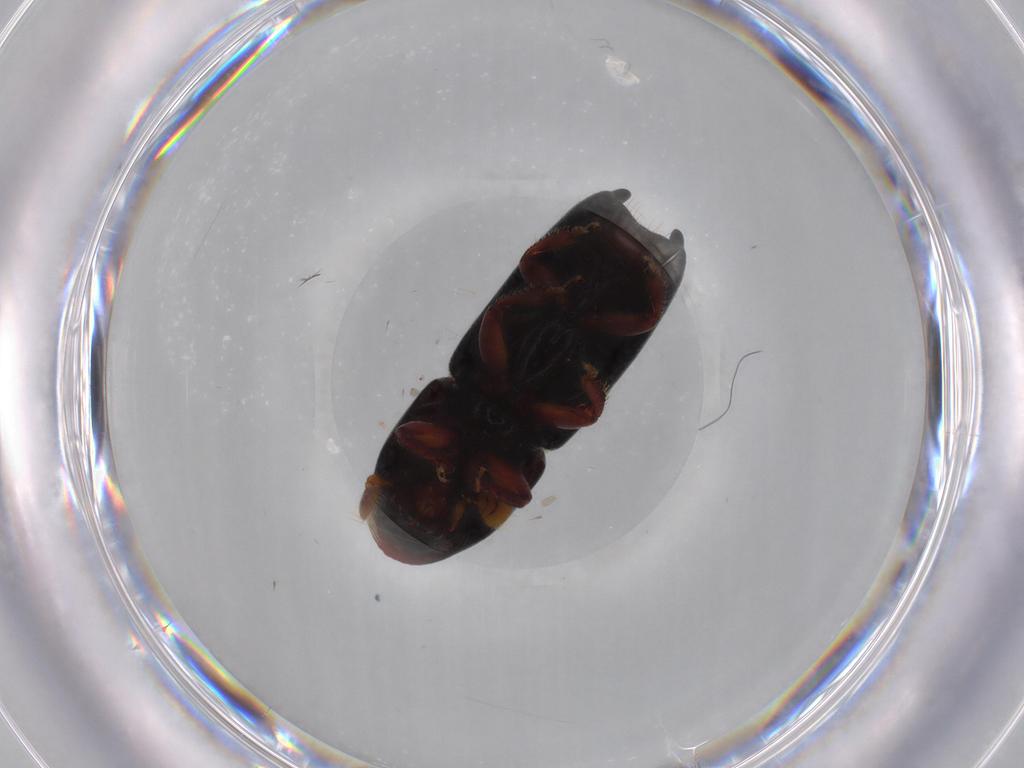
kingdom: Animalia
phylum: Arthropoda
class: Insecta
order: Coleoptera
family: Curculionidae
